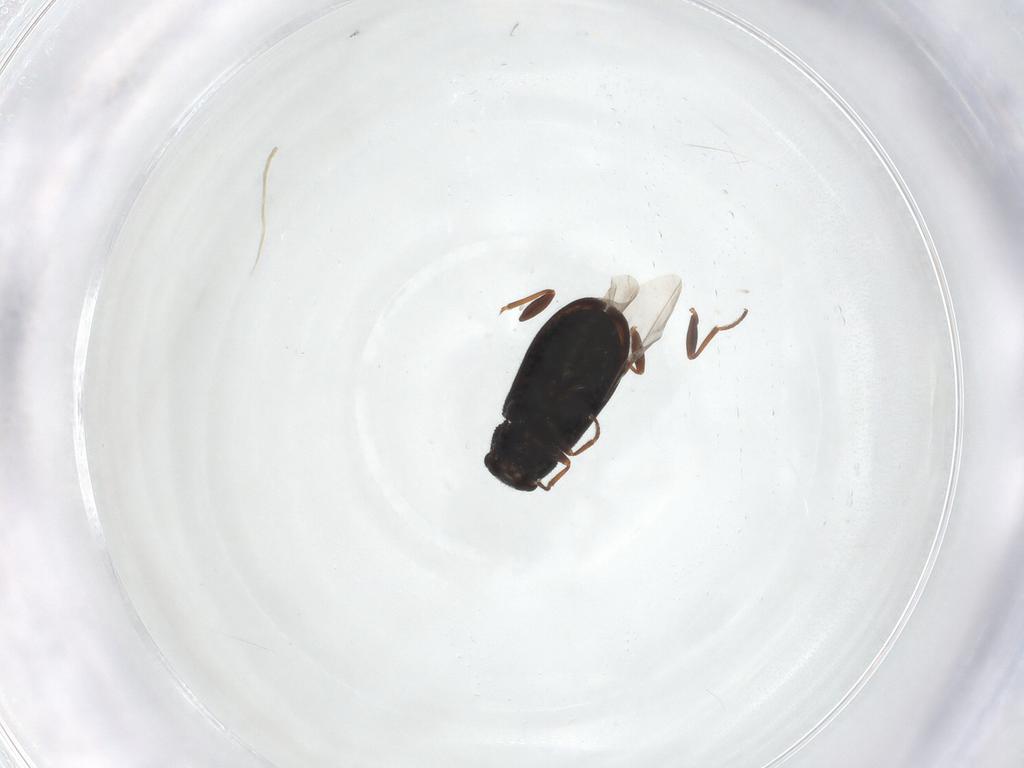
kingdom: Animalia
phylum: Arthropoda
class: Insecta
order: Coleoptera
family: Melyridae
